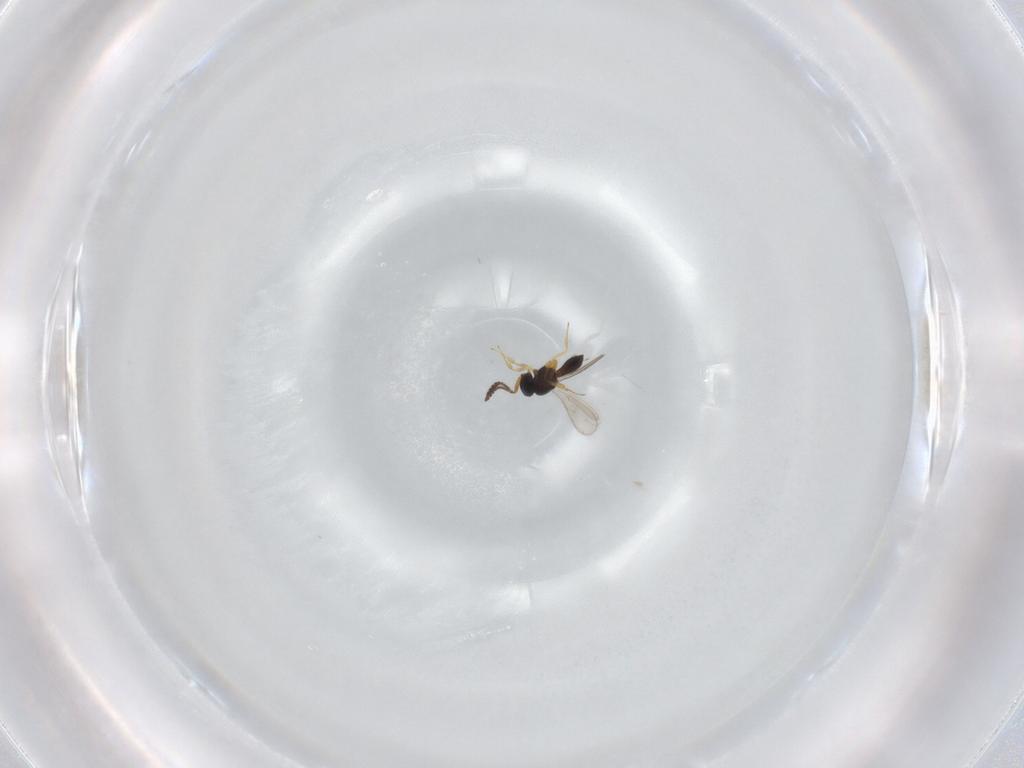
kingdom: Animalia
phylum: Arthropoda
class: Insecta
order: Hymenoptera
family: Scelionidae
